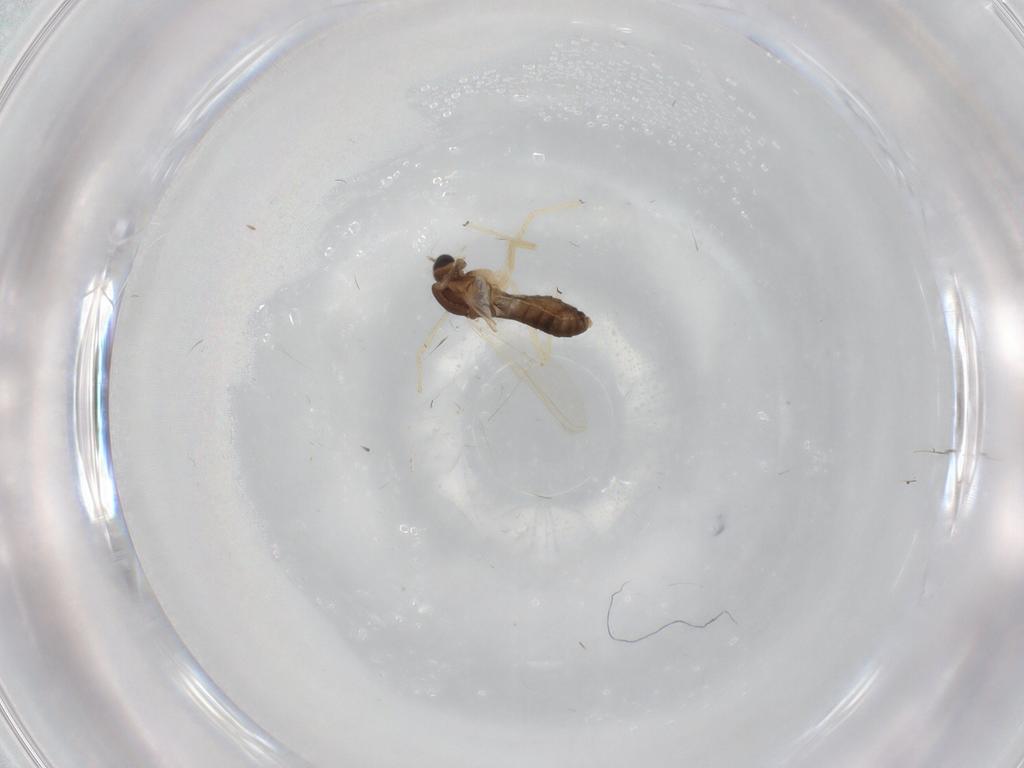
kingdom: Animalia
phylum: Arthropoda
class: Insecta
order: Diptera
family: Chironomidae
